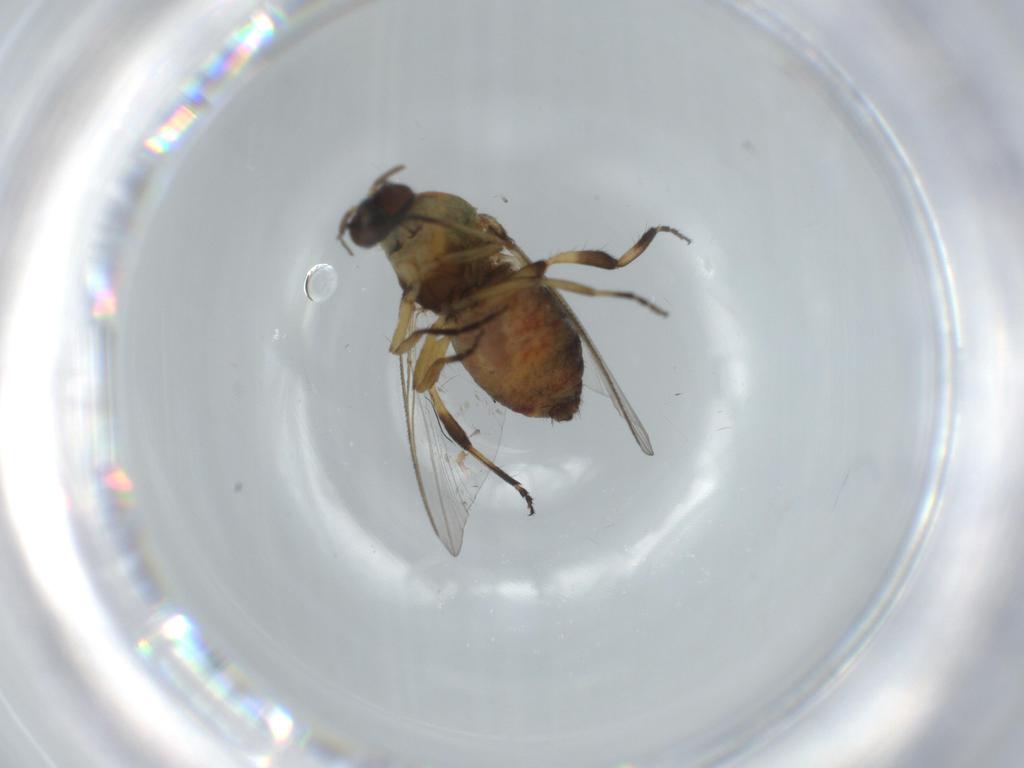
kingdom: Animalia
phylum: Arthropoda
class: Insecta
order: Diptera
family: Simuliidae
